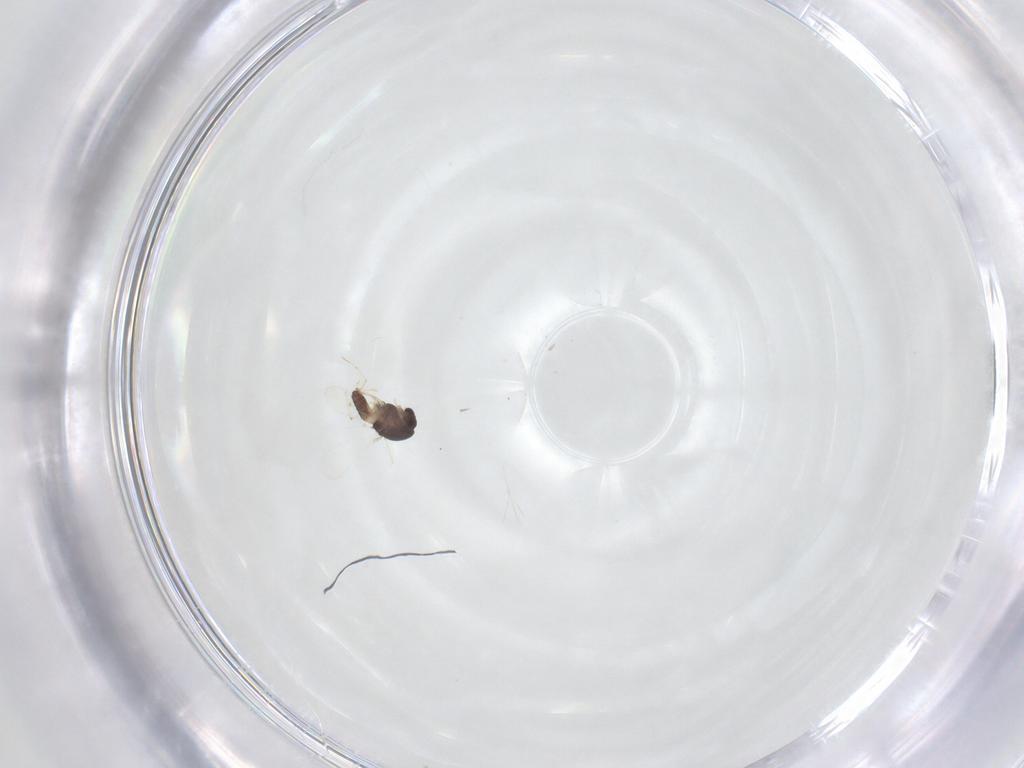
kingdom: Animalia
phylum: Arthropoda
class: Insecta
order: Diptera
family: Chironomidae
